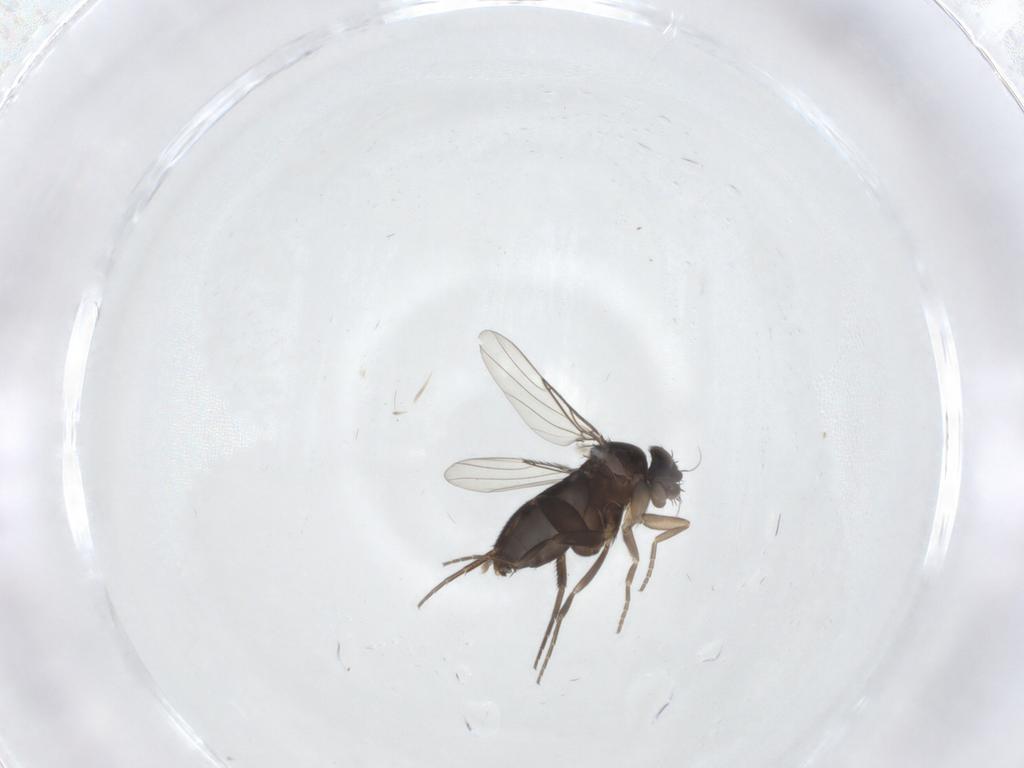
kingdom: Animalia
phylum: Arthropoda
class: Insecta
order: Diptera
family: Phoridae
